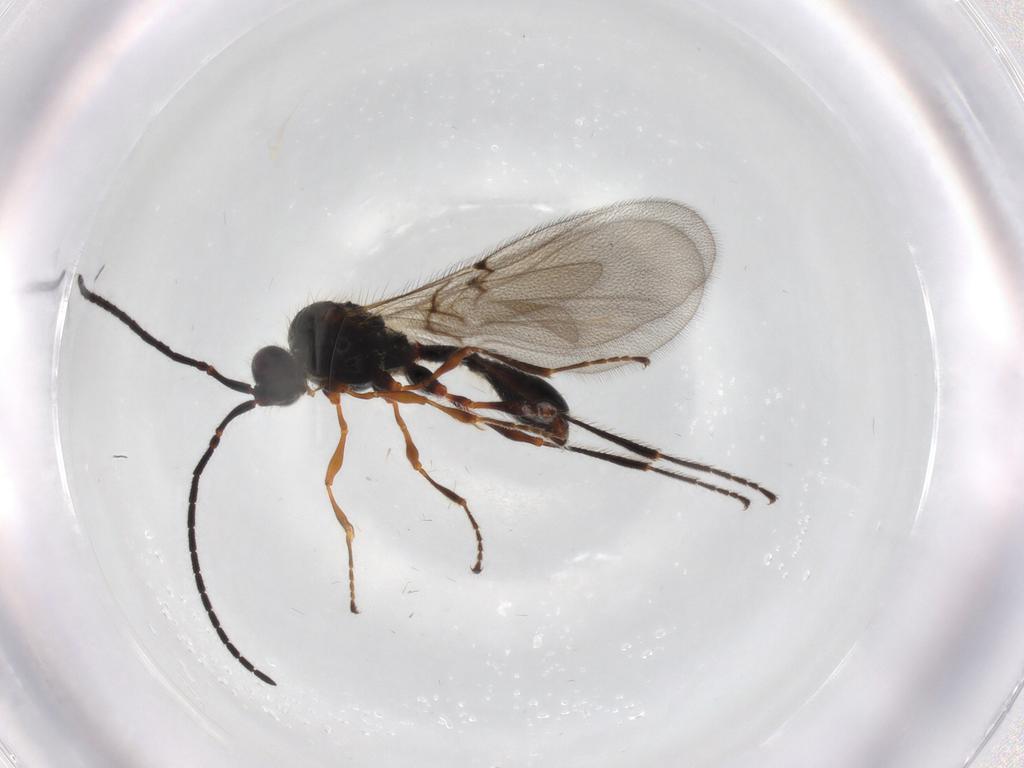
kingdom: Animalia
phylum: Arthropoda
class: Insecta
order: Hymenoptera
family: Diapriidae
